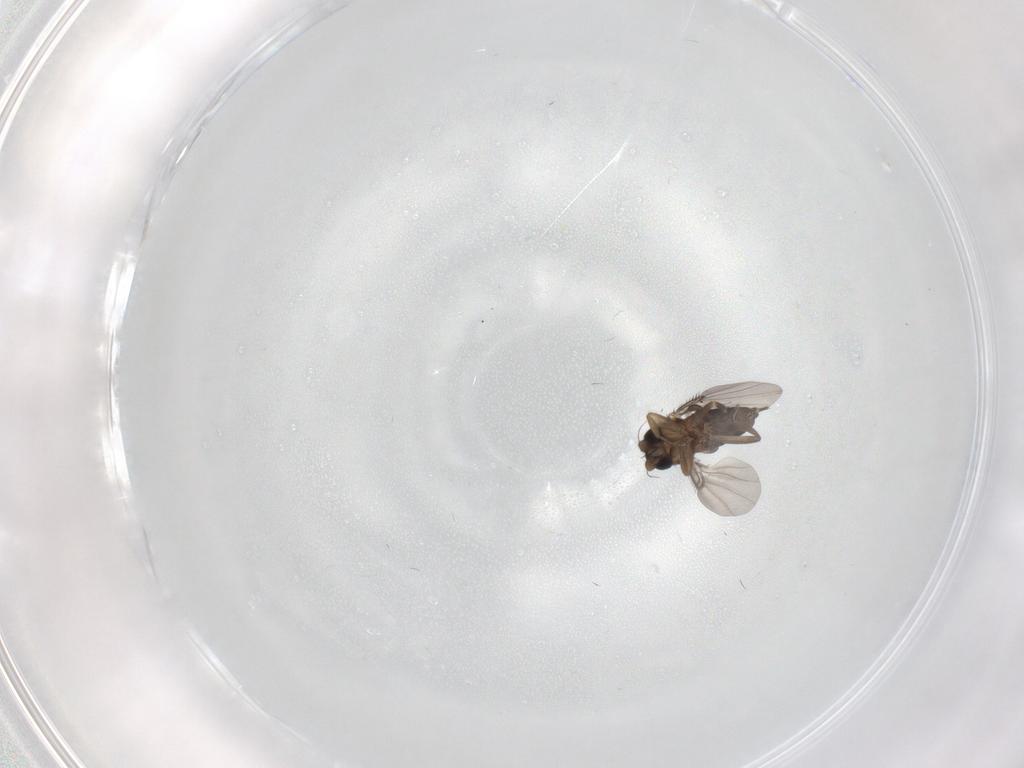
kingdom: Animalia
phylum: Arthropoda
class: Insecta
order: Diptera
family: Phoridae
